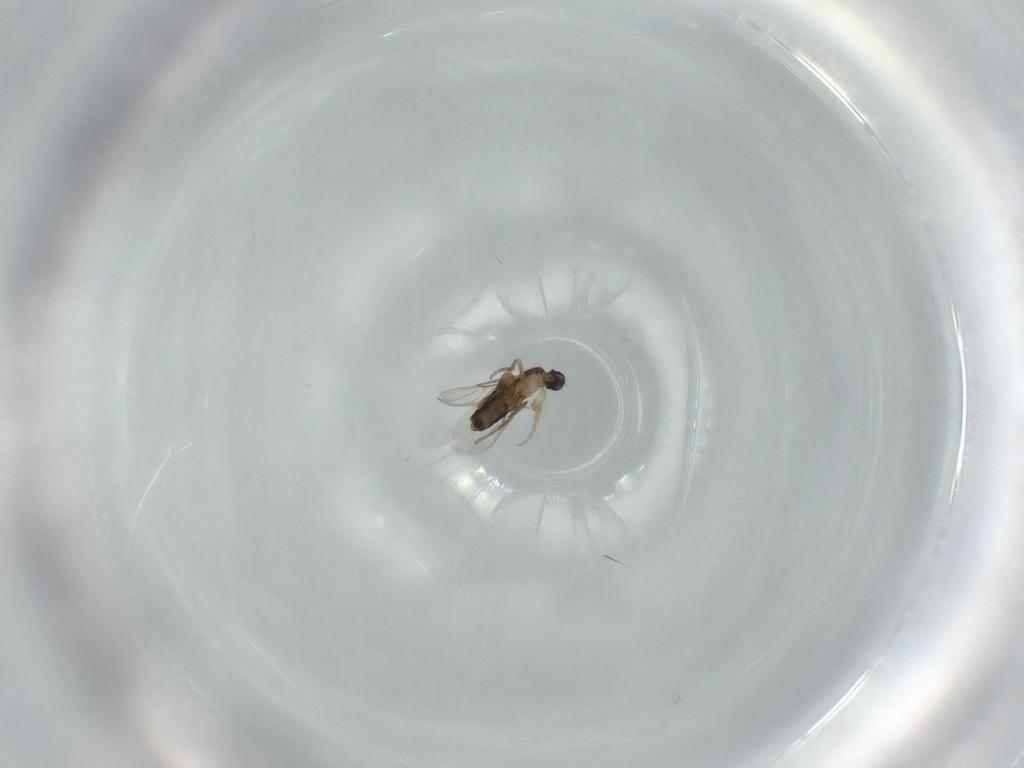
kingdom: Animalia
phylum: Arthropoda
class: Insecta
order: Diptera
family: Phoridae
